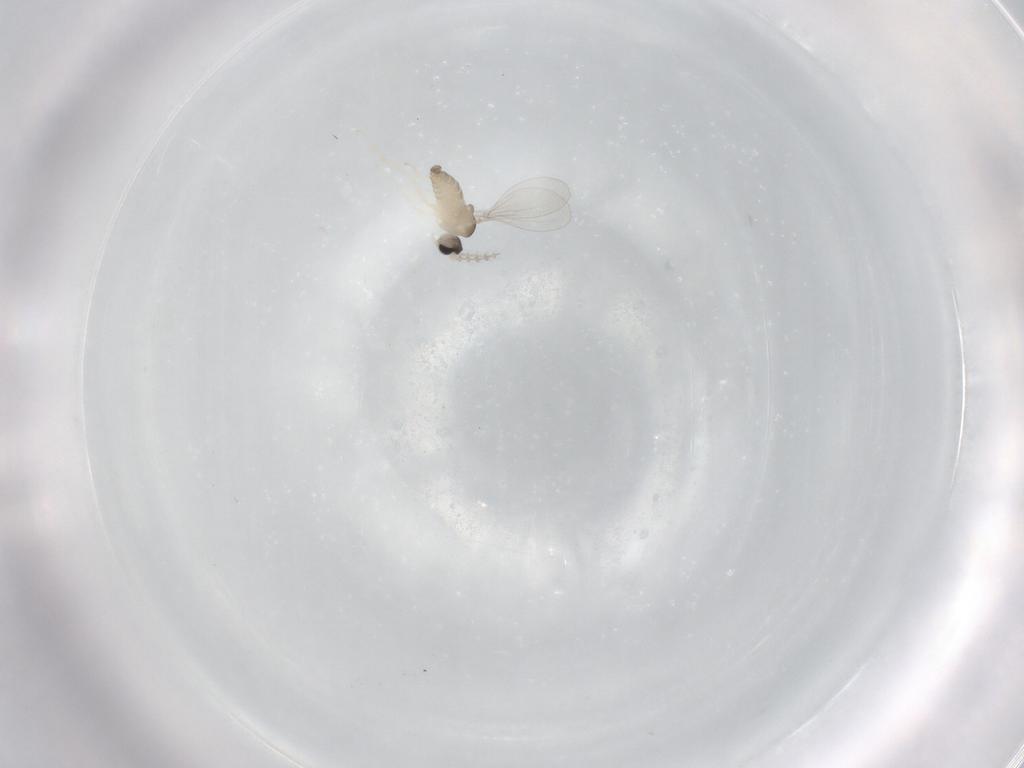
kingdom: Animalia
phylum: Arthropoda
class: Insecta
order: Diptera
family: Cecidomyiidae
